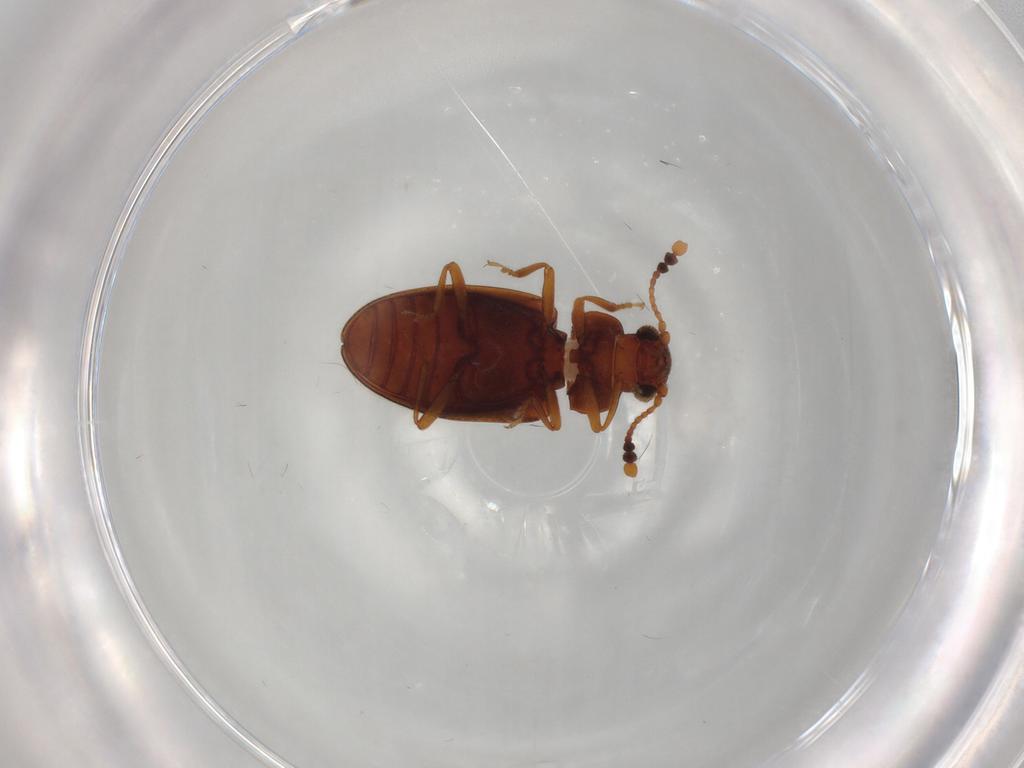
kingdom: Animalia
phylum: Arthropoda
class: Insecta
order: Coleoptera
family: Erotylidae
